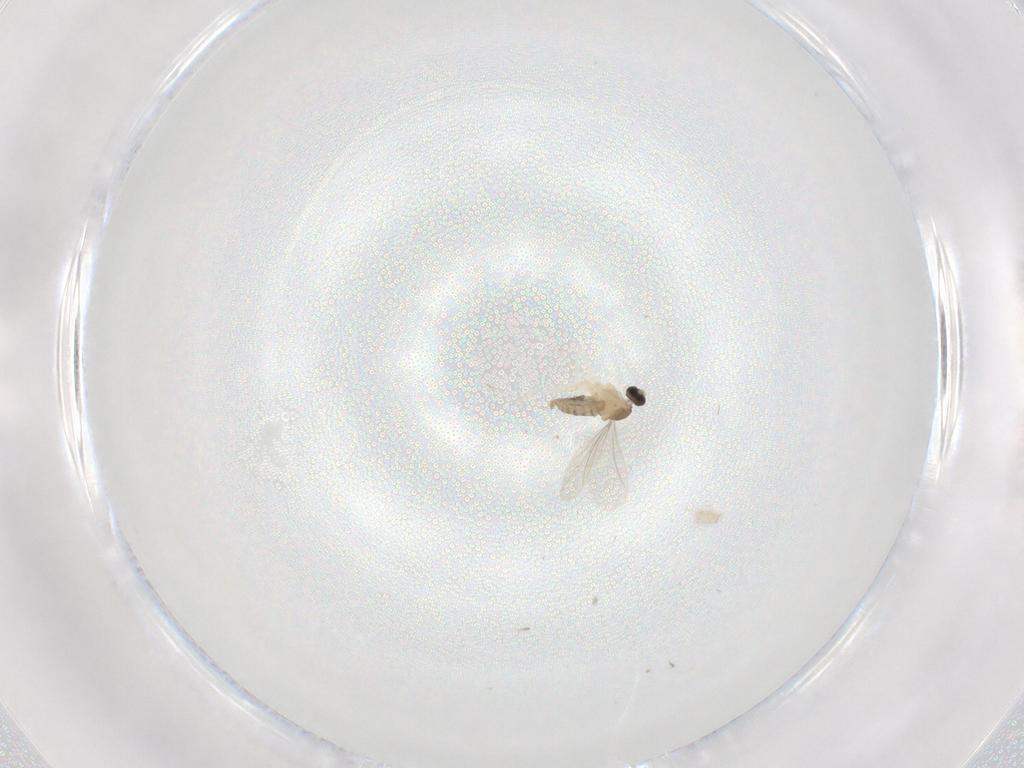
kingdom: Animalia
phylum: Arthropoda
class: Insecta
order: Diptera
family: Cecidomyiidae
